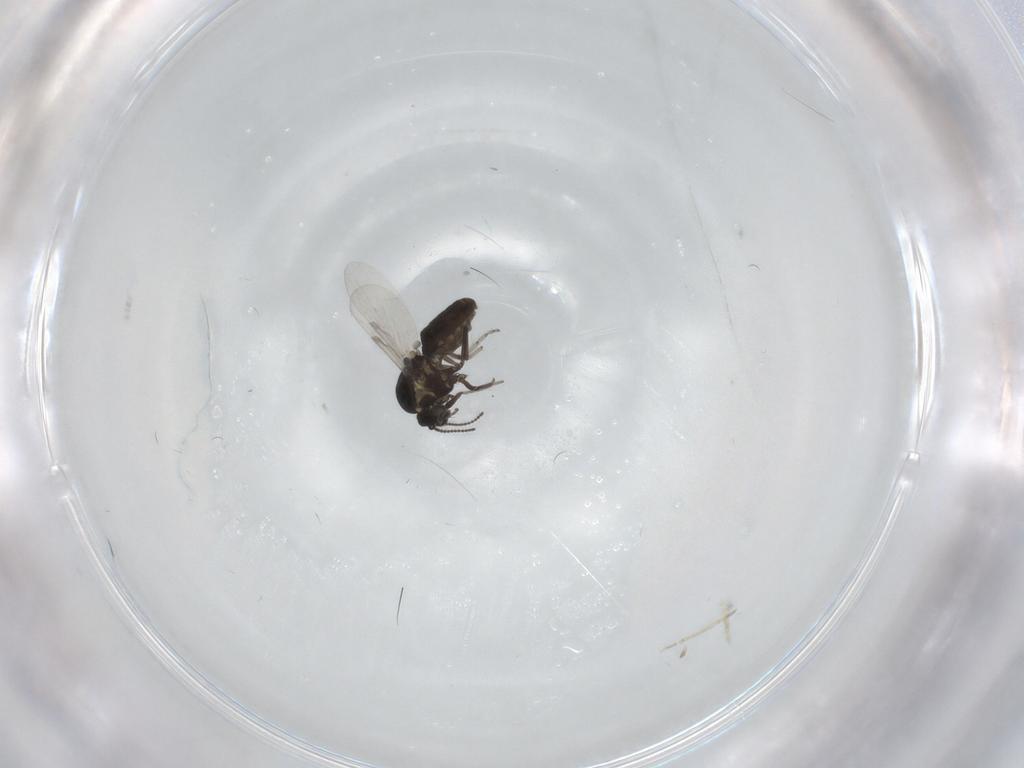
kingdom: Animalia
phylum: Arthropoda
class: Insecta
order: Diptera
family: Ceratopogonidae
